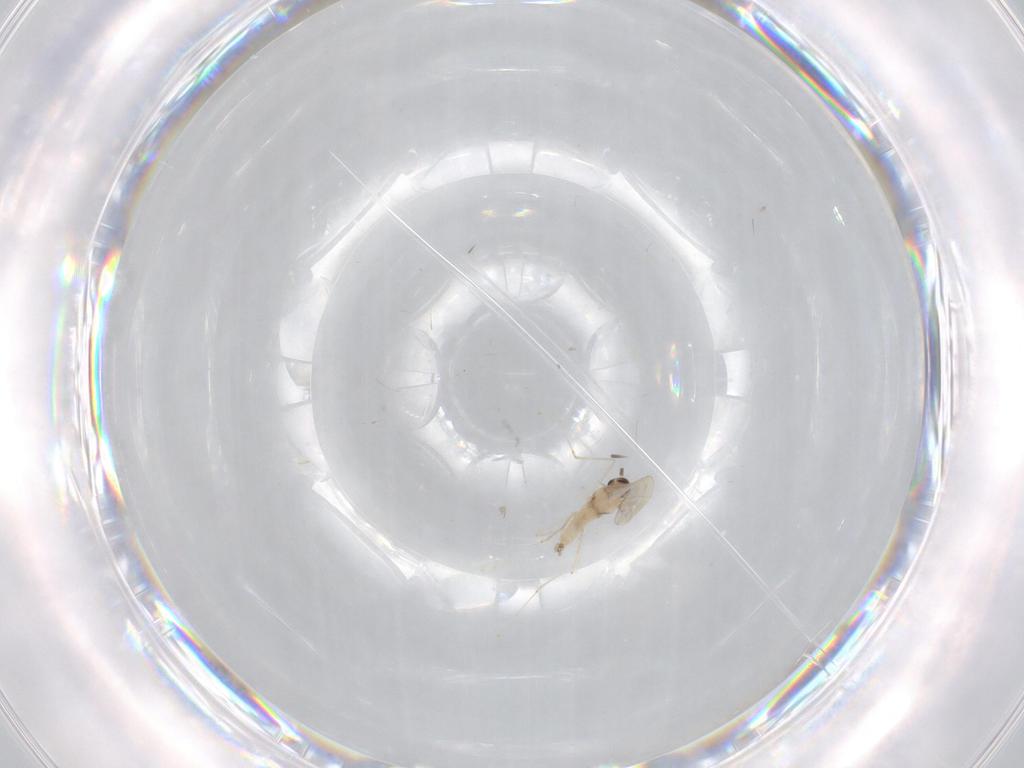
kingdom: Animalia
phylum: Arthropoda
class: Insecta
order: Diptera
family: Cecidomyiidae
